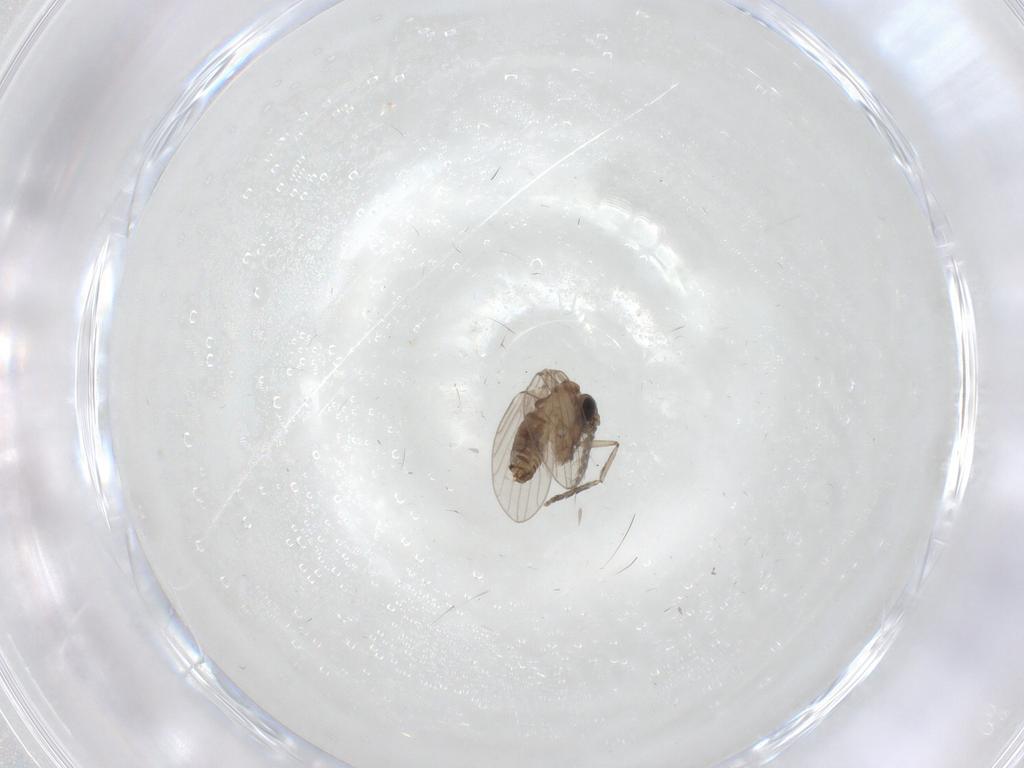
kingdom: Animalia
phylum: Arthropoda
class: Insecta
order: Diptera
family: Psychodidae
